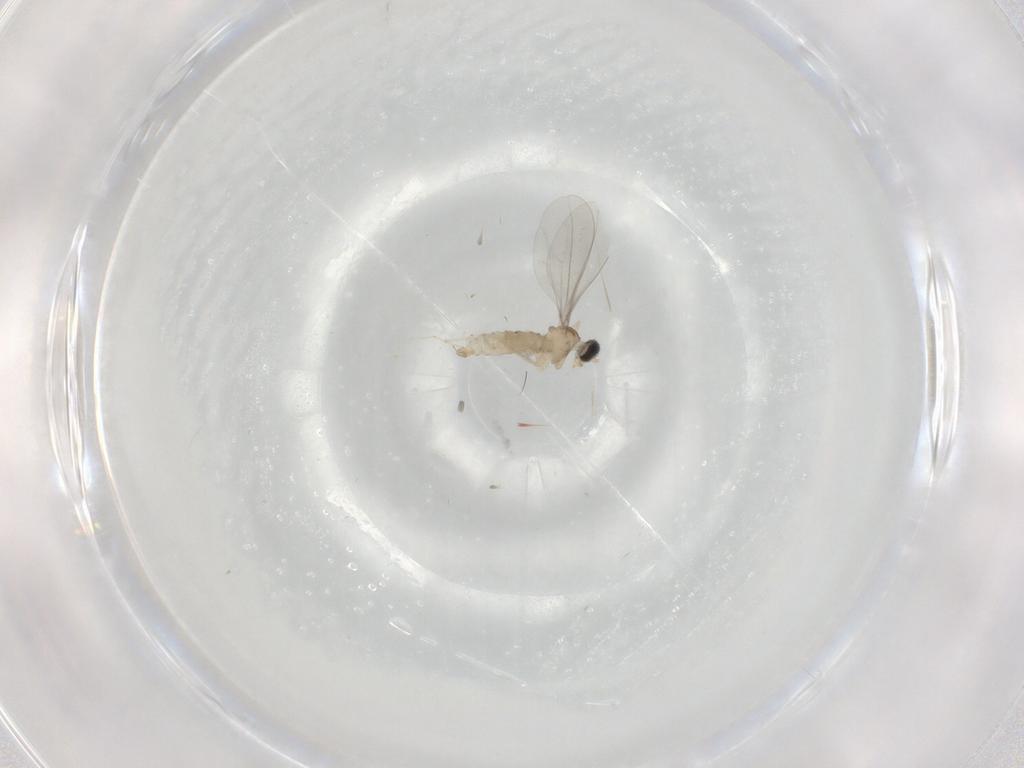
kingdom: Animalia
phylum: Arthropoda
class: Insecta
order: Diptera
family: Cecidomyiidae
